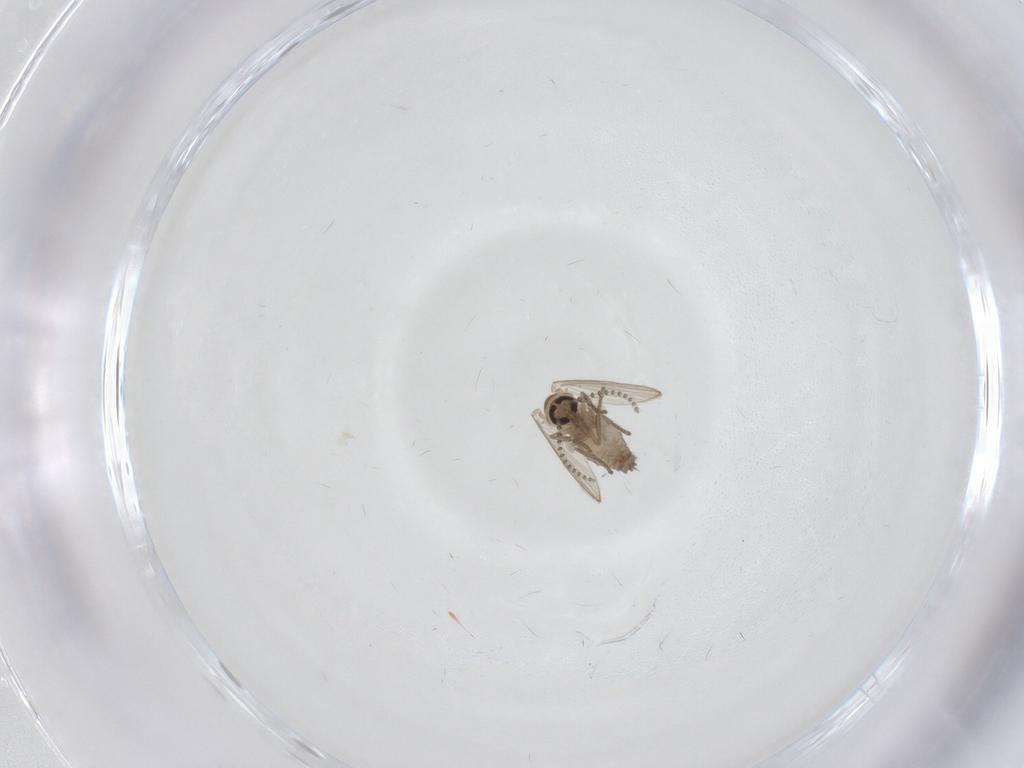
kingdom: Animalia
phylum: Arthropoda
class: Insecta
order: Diptera
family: Psychodidae
